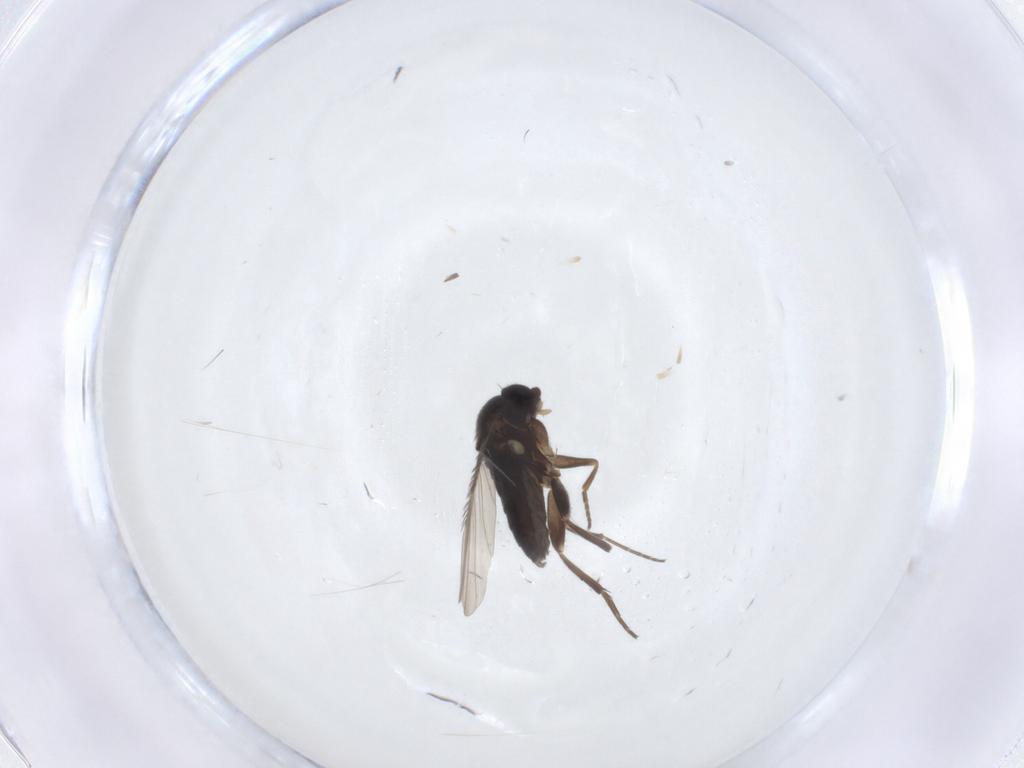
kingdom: Animalia
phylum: Arthropoda
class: Insecta
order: Diptera
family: Phoridae
